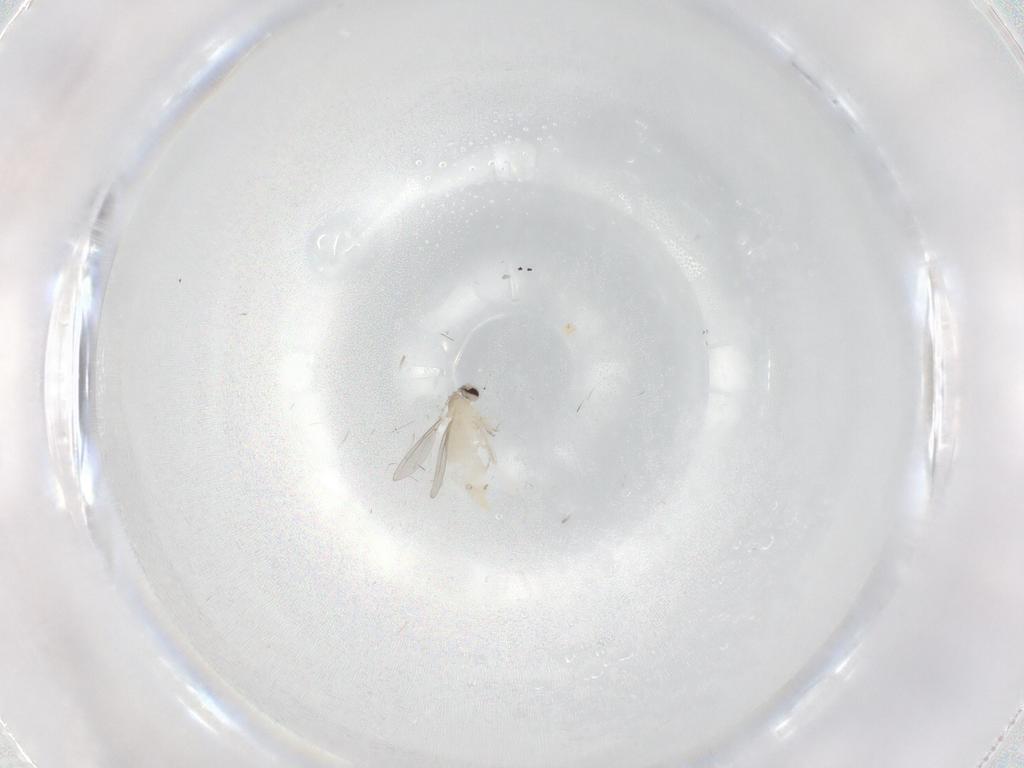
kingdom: Animalia
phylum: Arthropoda
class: Insecta
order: Diptera
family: Cecidomyiidae
